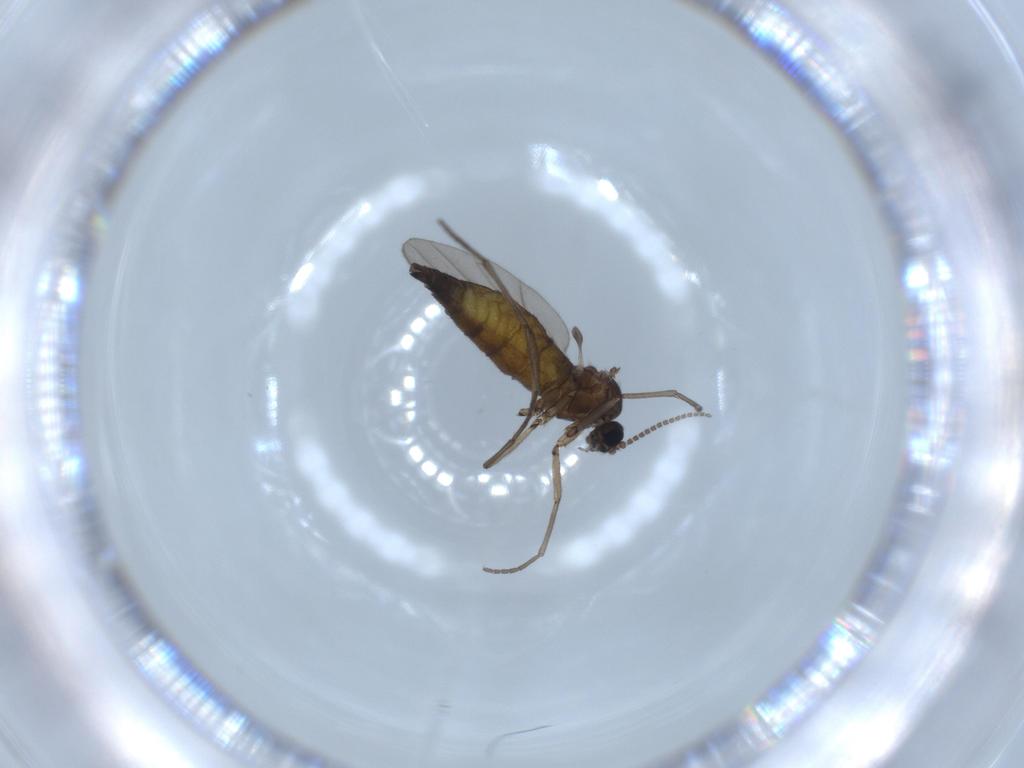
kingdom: Animalia
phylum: Arthropoda
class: Insecta
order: Diptera
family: Sciaridae
